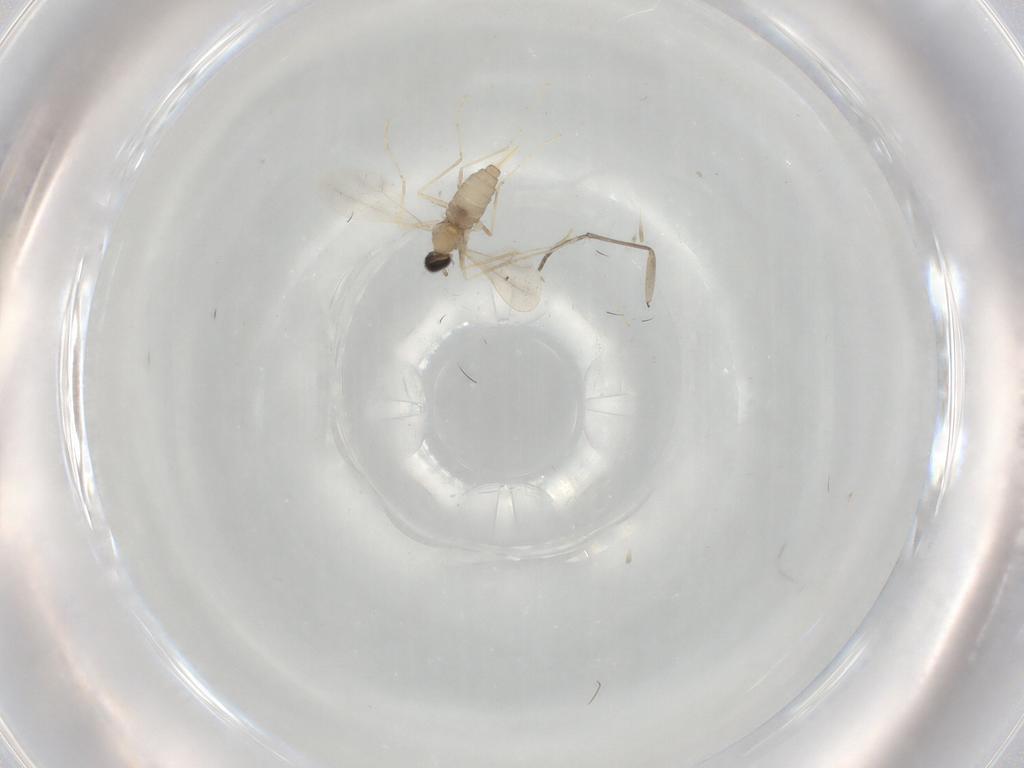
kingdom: Animalia
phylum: Arthropoda
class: Insecta
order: Diptera
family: Cecidomyiidae
